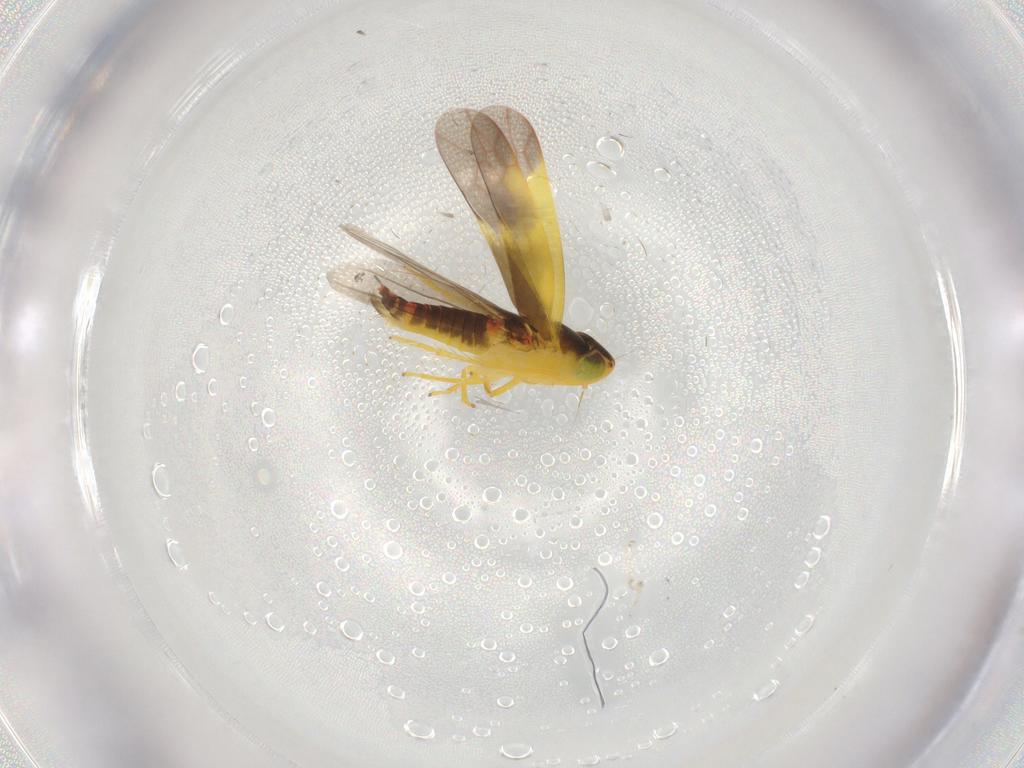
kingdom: Animalia
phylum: Arthropoda
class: Insecta
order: Hemiptera
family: Cicadellidae
